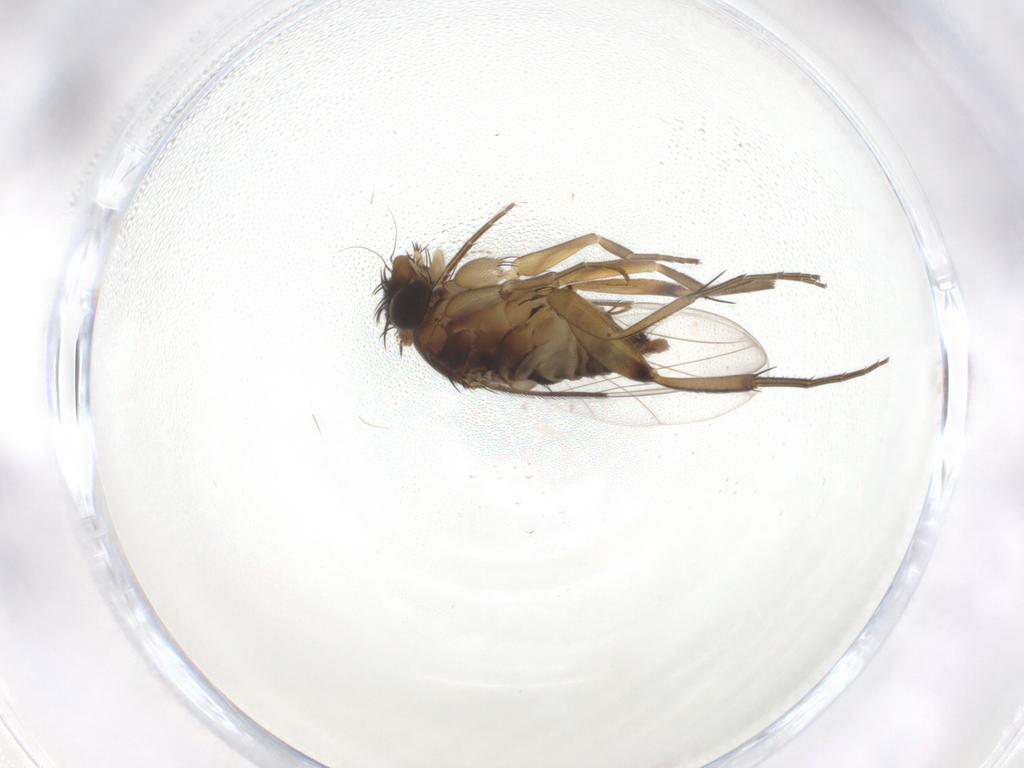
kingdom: Animalia
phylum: Arthropoda
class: Insecta
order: Diptera
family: Cecidomyiidae
